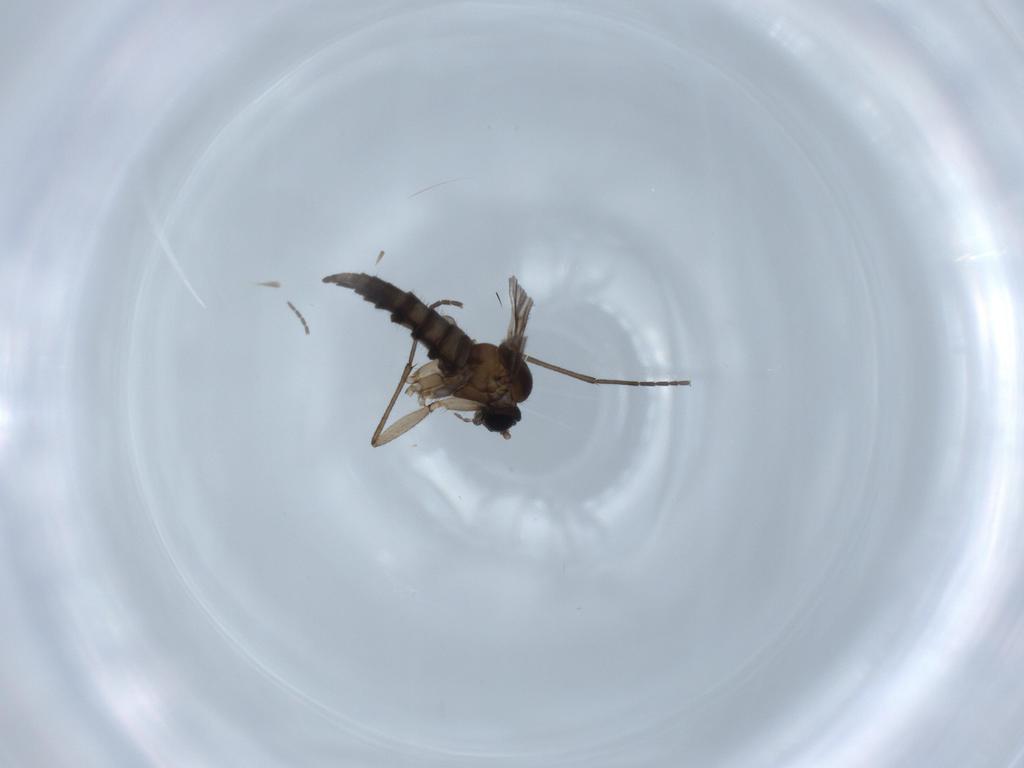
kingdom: Animalia
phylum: Arthropoda
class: Insecta
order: Diptera
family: Sciaridae
